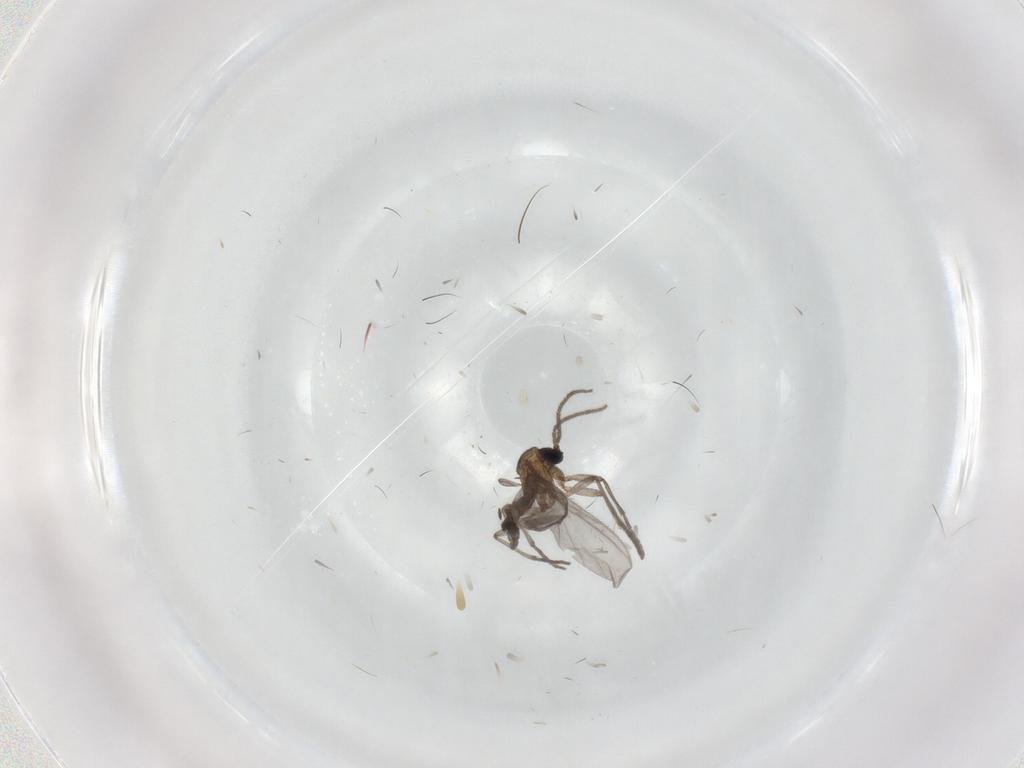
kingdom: Animalia
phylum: Arthropoda
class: Insecta
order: Diptera
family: Sciaridae
